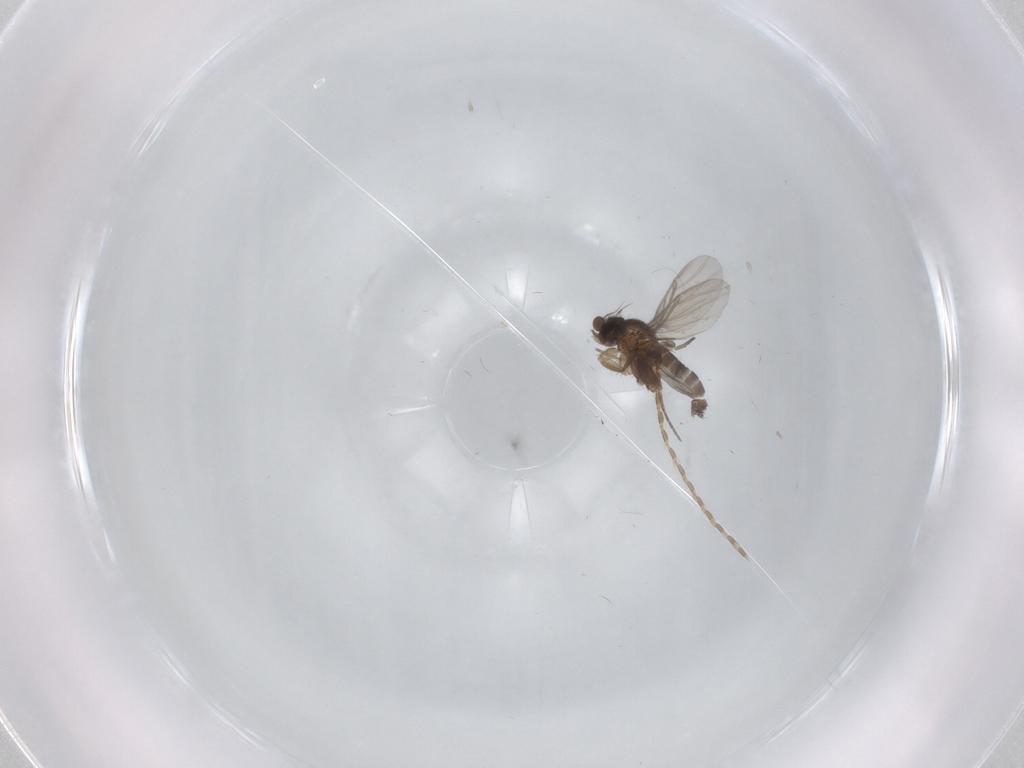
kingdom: Animalia
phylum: Arthropoda
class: Insecta
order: Diptera
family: Psychodidae
